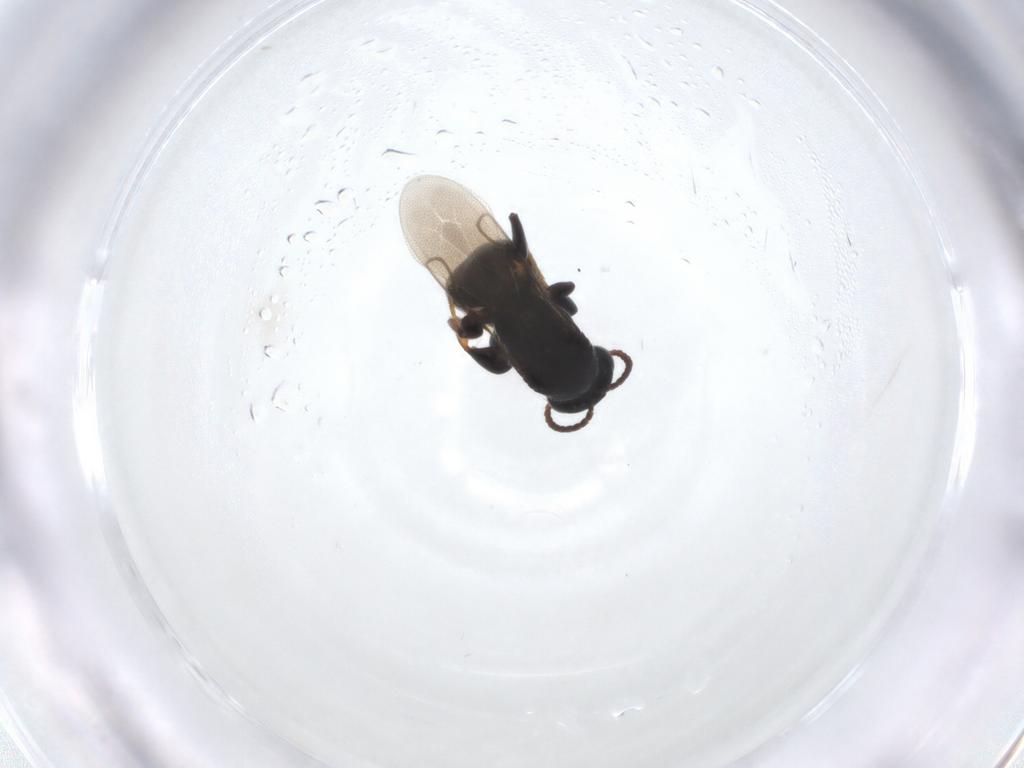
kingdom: Animalia
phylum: Arthropoda
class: Insecta
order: Hymenoptera
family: Bethylidae
